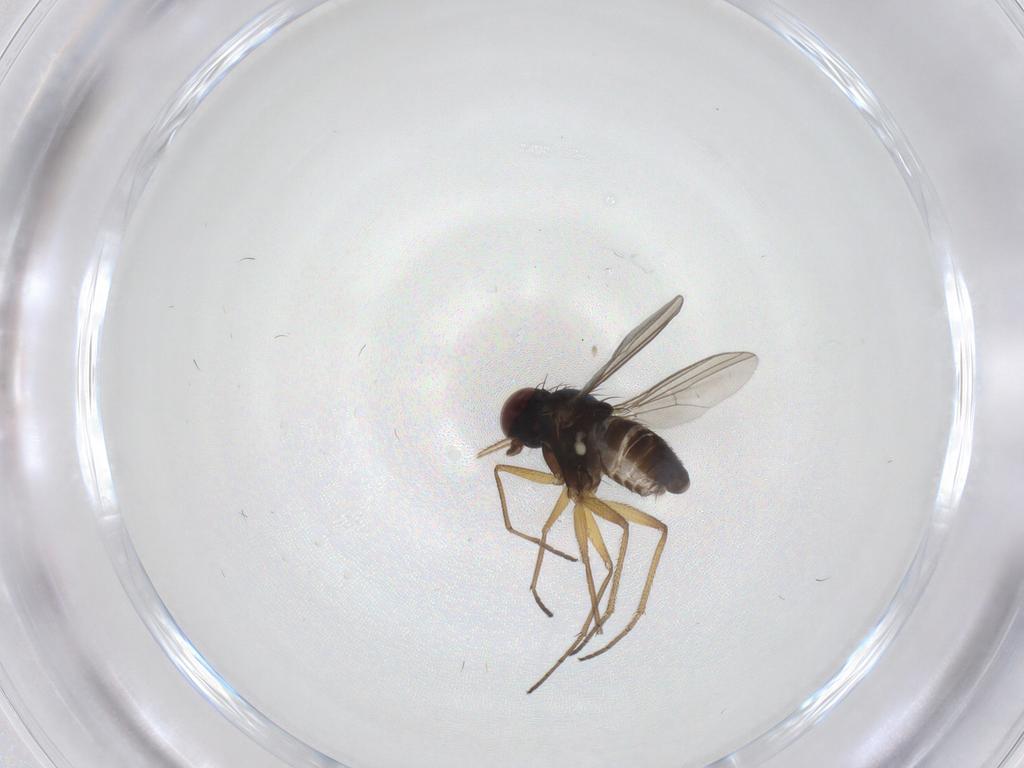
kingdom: Animalia
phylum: Arthropoda
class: Insecta
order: Diptera
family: Dolichopodidae
